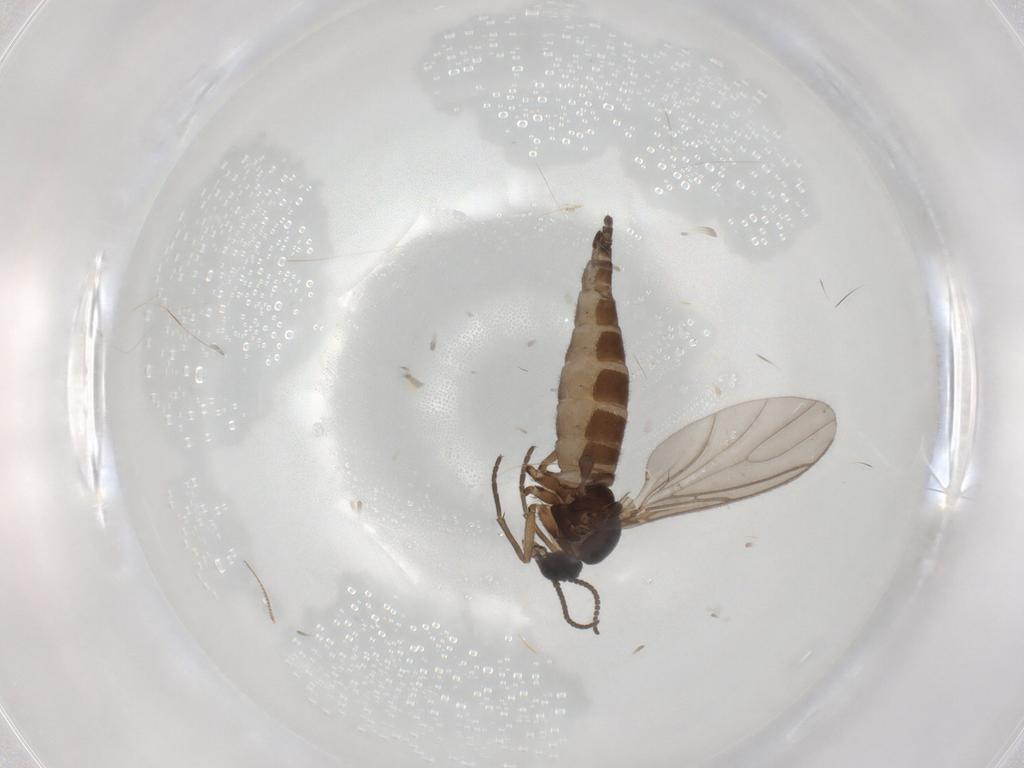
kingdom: Animalia
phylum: Arthropoda
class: Insecta
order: Diptera
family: Sciaridae
